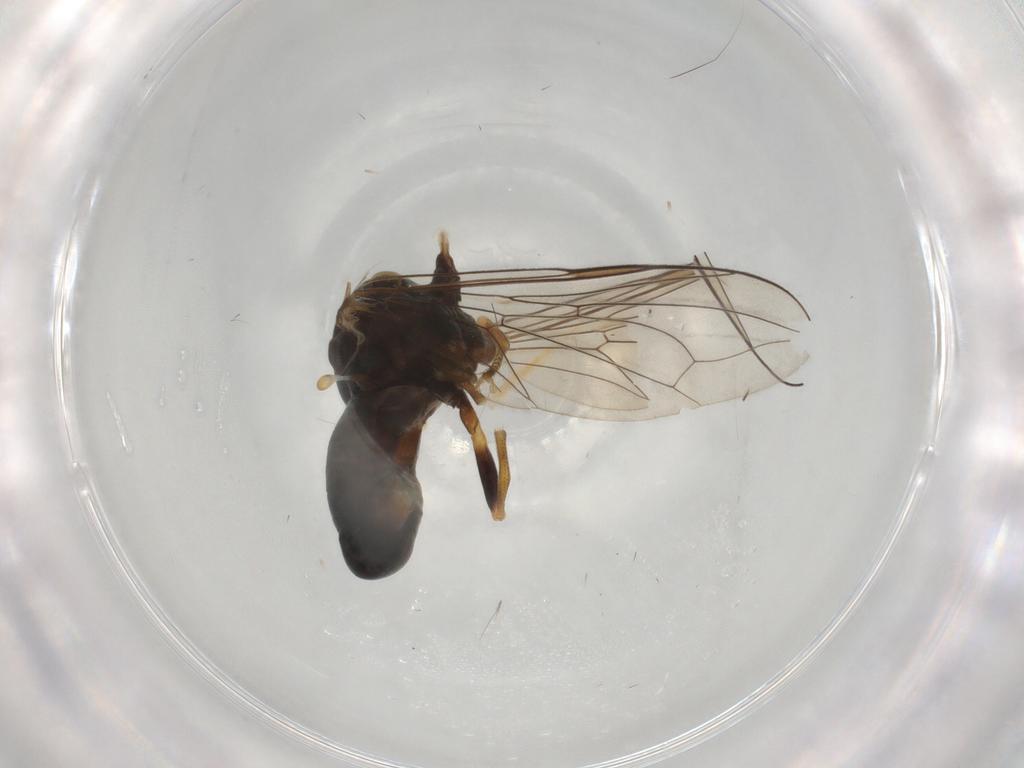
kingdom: Animalia
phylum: Arthropoda
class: Insecta
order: Diptera
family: Pipunculidae
